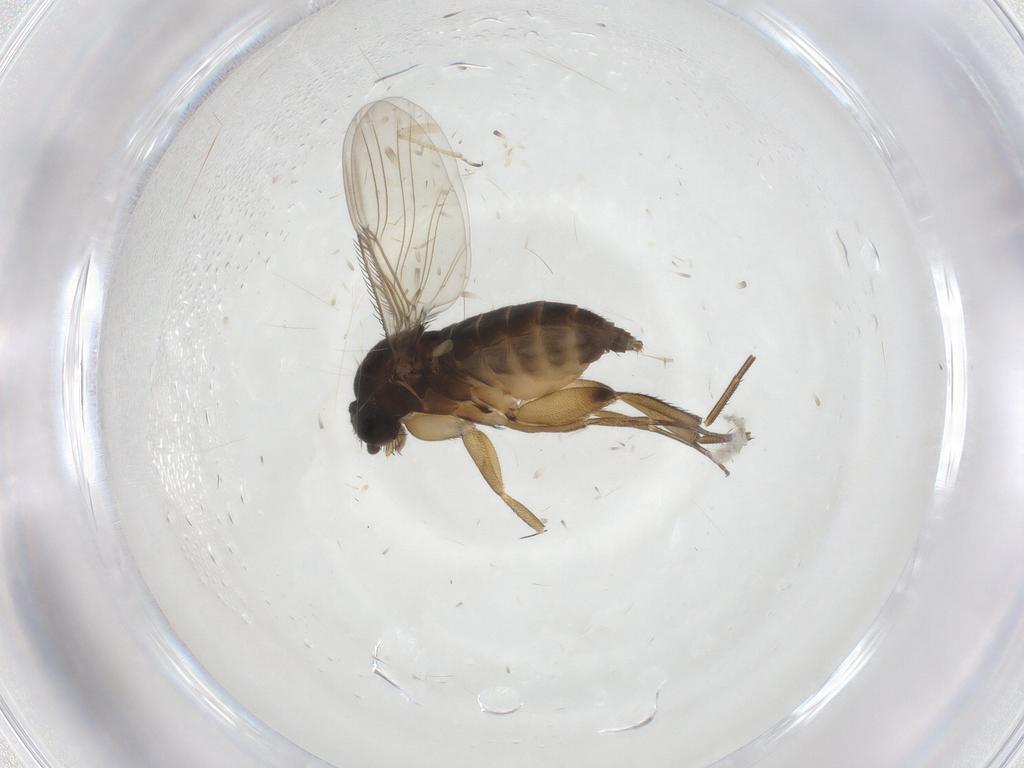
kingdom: Animalia
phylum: Arthropoda
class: Insecta
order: Diptera
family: Phoridae
